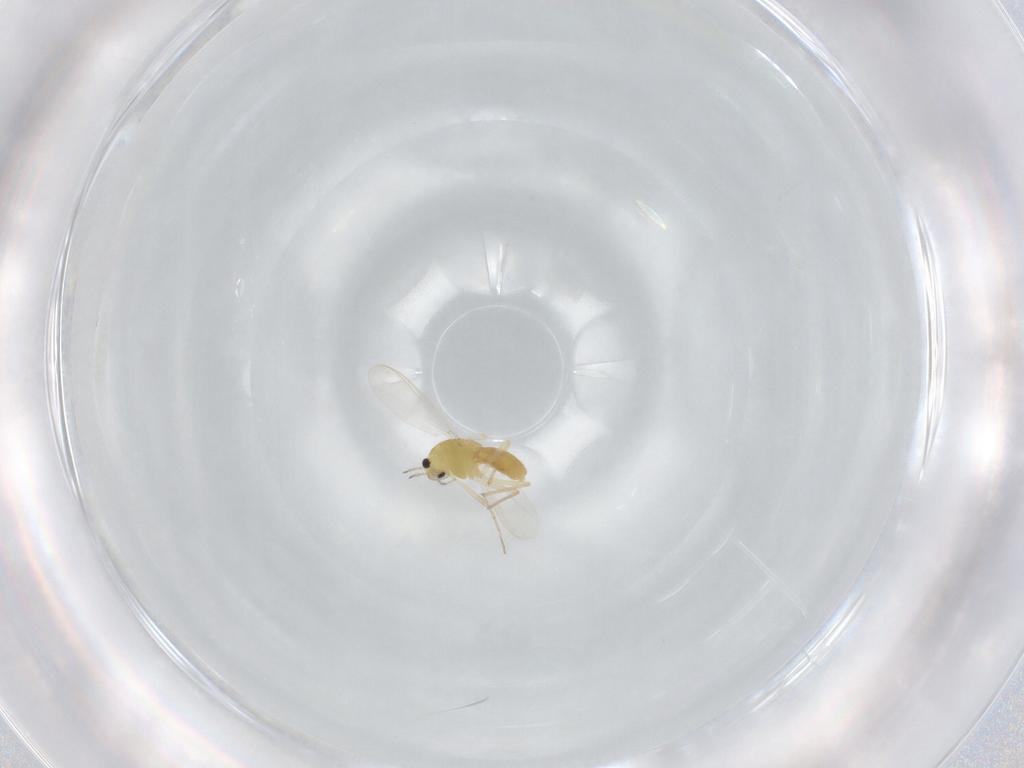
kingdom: Animalia
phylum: Arthropoda
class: Insecta
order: Diptera
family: Chironomidae
